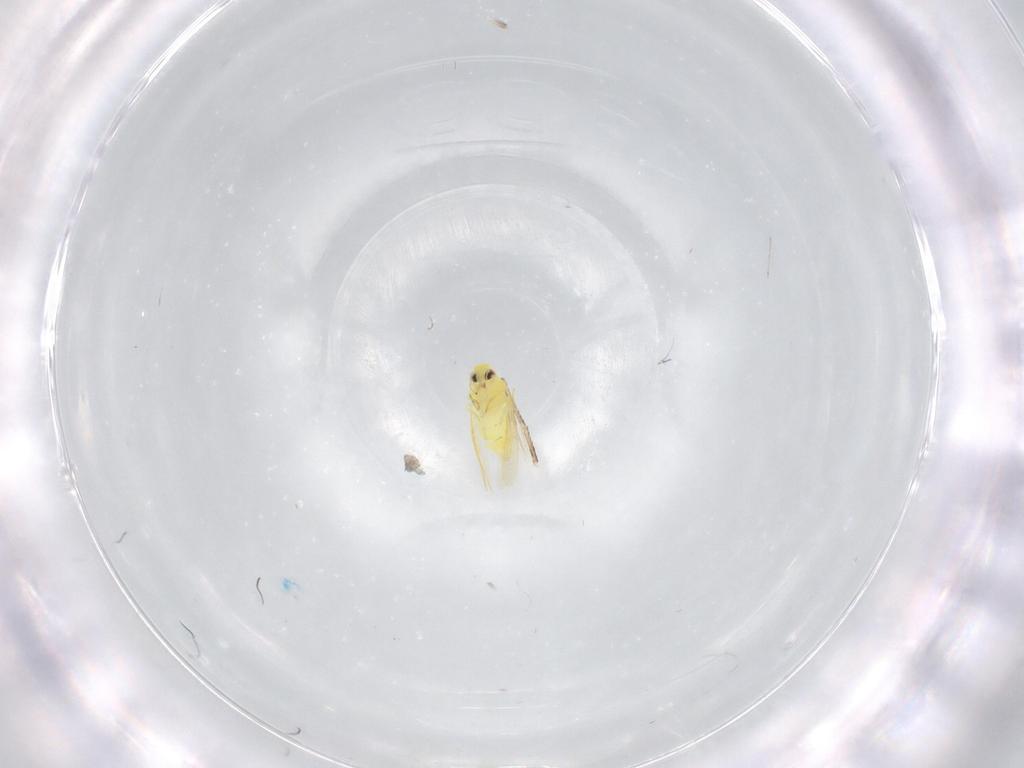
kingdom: Animalia
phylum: Arthropoda
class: Insecta
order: Hemiptera
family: Aleyrodidae
